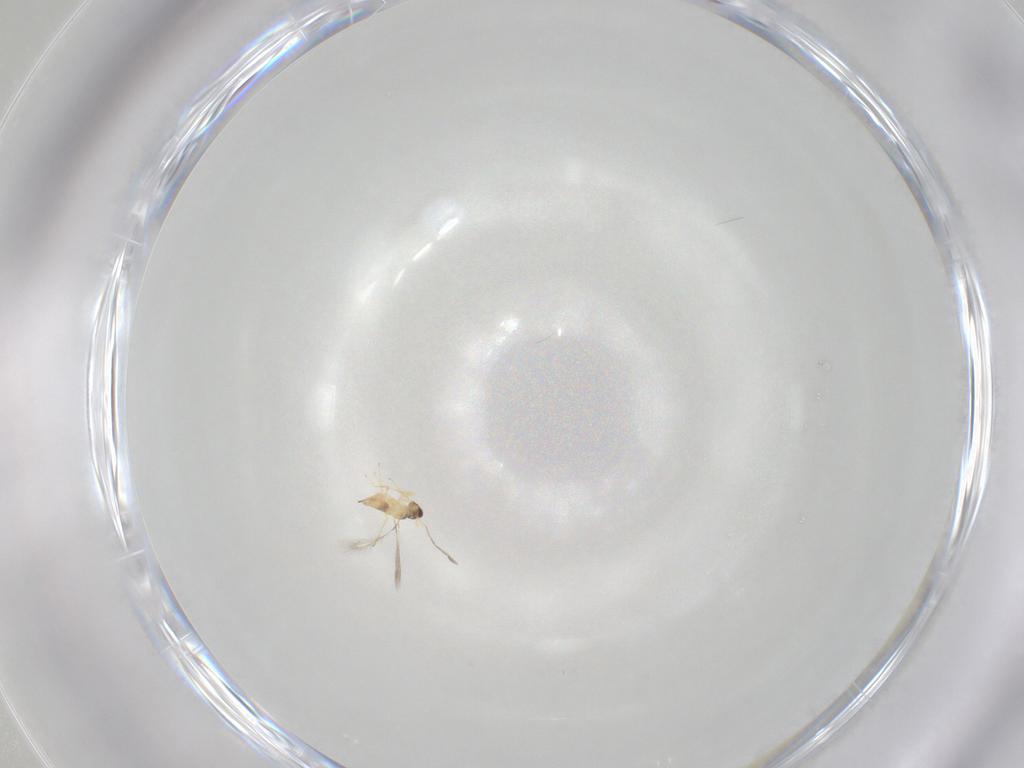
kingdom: Animalia
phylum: Arthropoda
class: Insecta
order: Hymenoptera
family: Mymaridae
